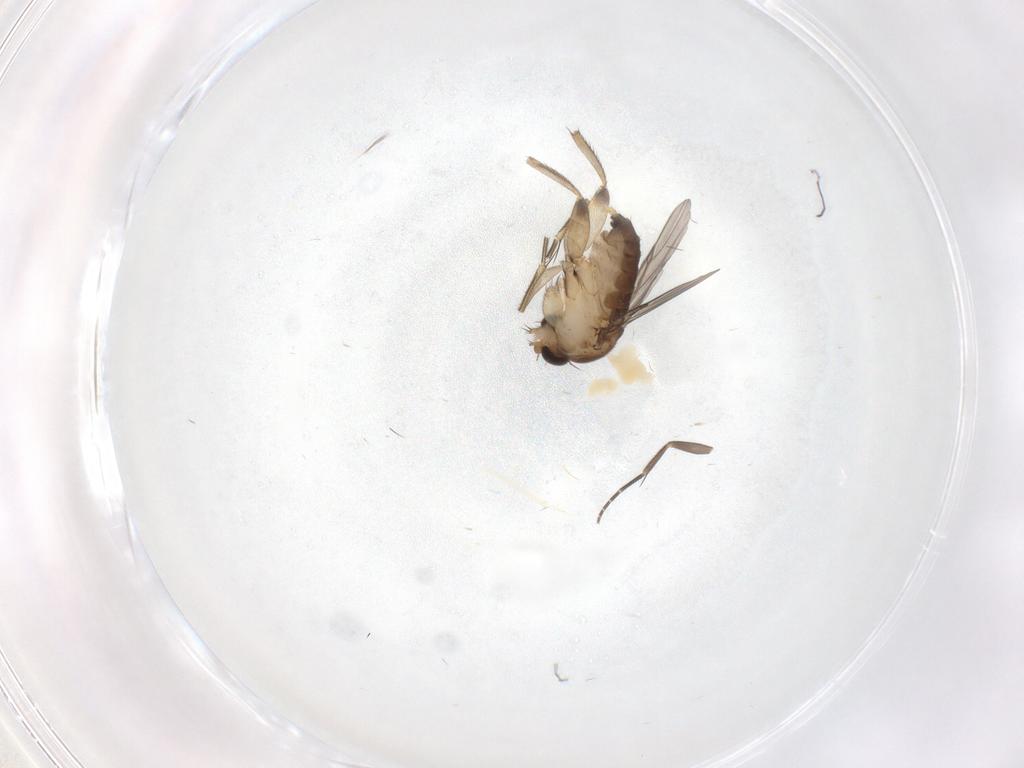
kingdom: Animalia
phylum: Arthropoda
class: Insecta
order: Diptera
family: Phoridae
